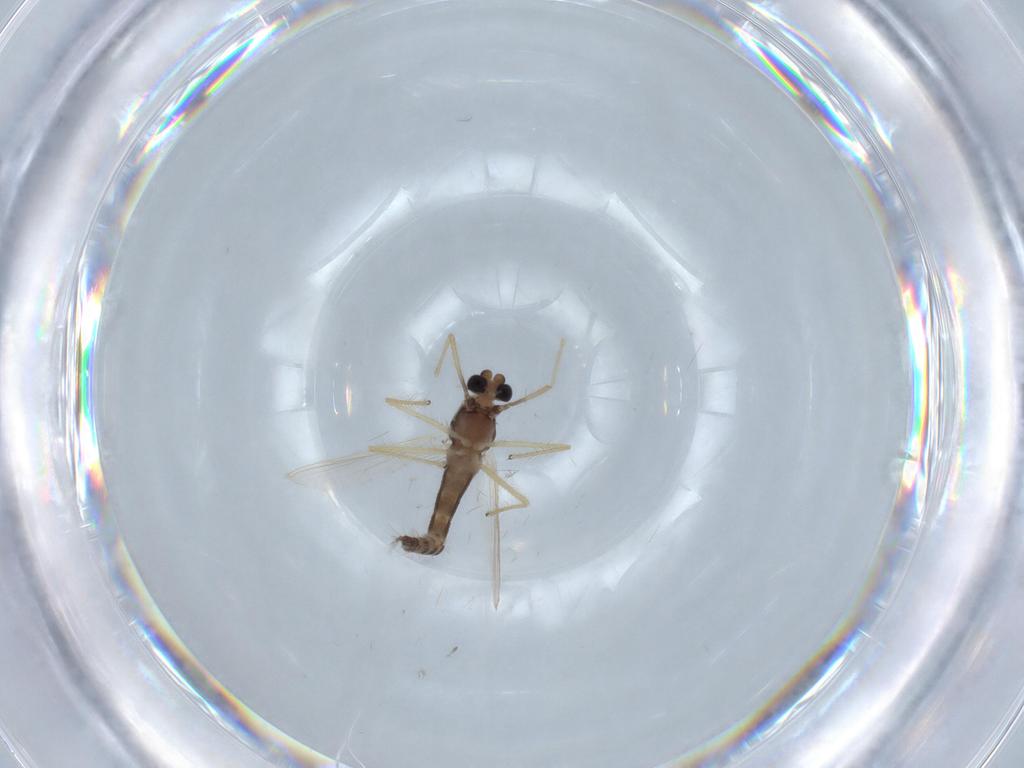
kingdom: Animalia
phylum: Arthropoda
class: Insecta
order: Diptera
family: Chironomidae
